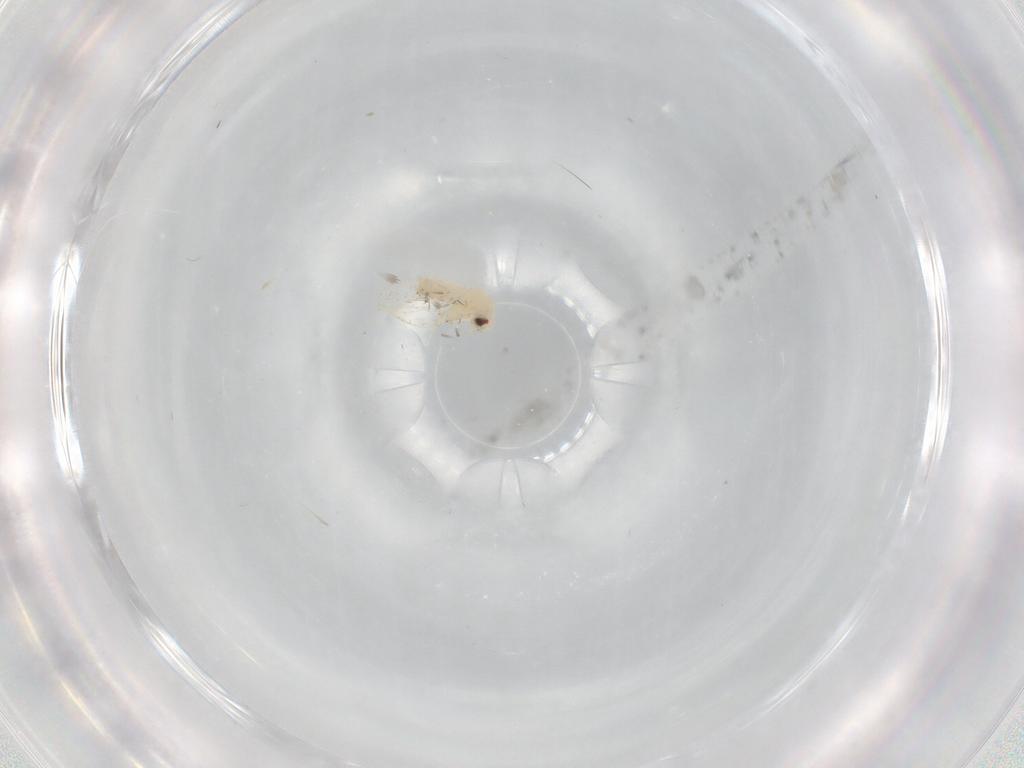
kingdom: Animalia
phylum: Arthropoda
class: Insecta
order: Hemiptera
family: Aleyrodidae
